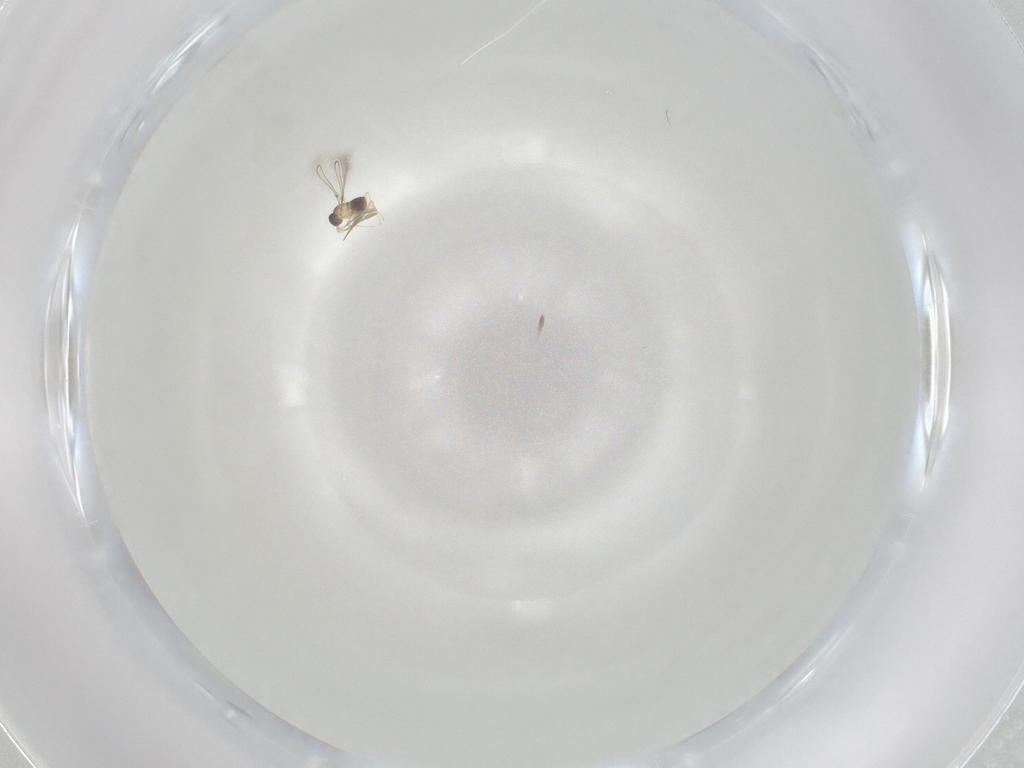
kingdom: Animalia
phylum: Arthropoda
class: Insecta
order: Hymenoptera
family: Mymaridae
